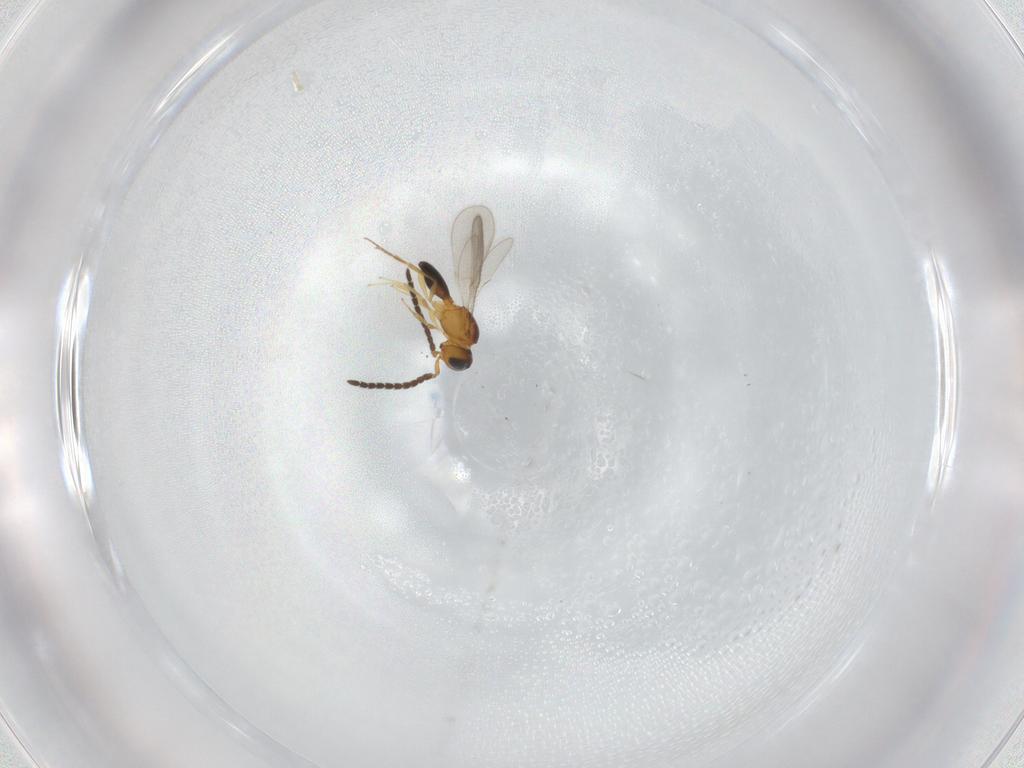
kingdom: Animalia
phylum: Arthropoda
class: Insecta
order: Hymenoptera
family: Scelionidae
